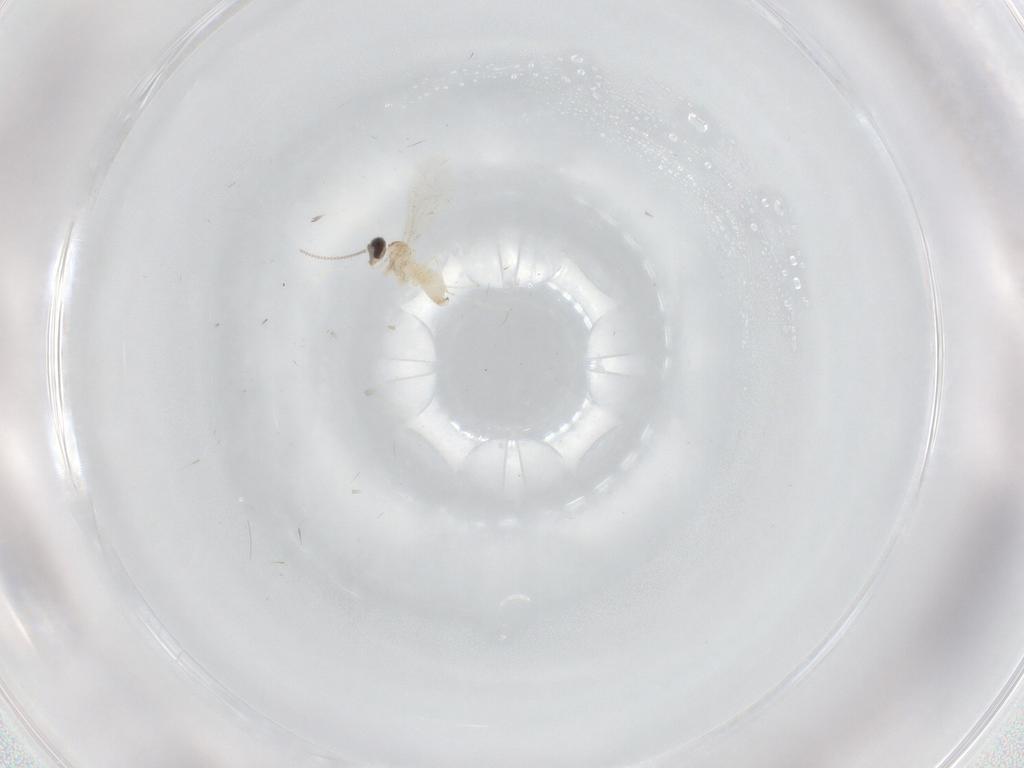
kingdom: Animalia
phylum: Arthropoda
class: Insecta
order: Diptera
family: Cecidomyiidae
